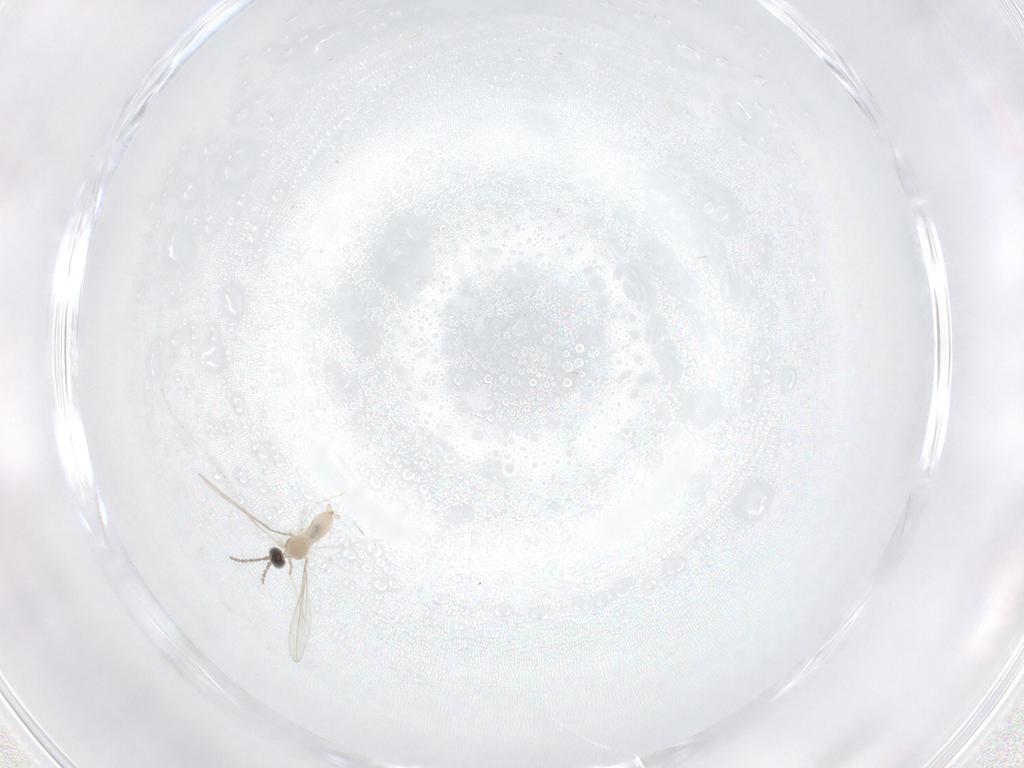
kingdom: Animalia
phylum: Arthropoda
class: Insecta
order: Diptera
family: Cecidomyiidae
